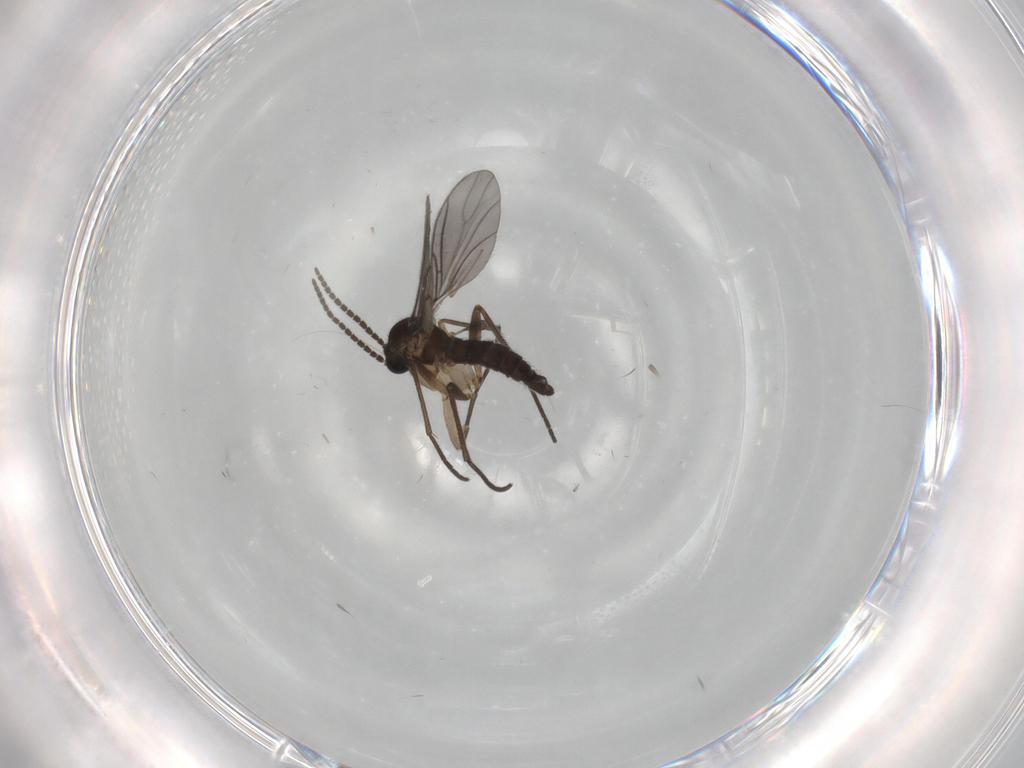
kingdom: Animalia
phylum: Arthropoda
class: Insecta
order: Diptera
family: Sciaridae
